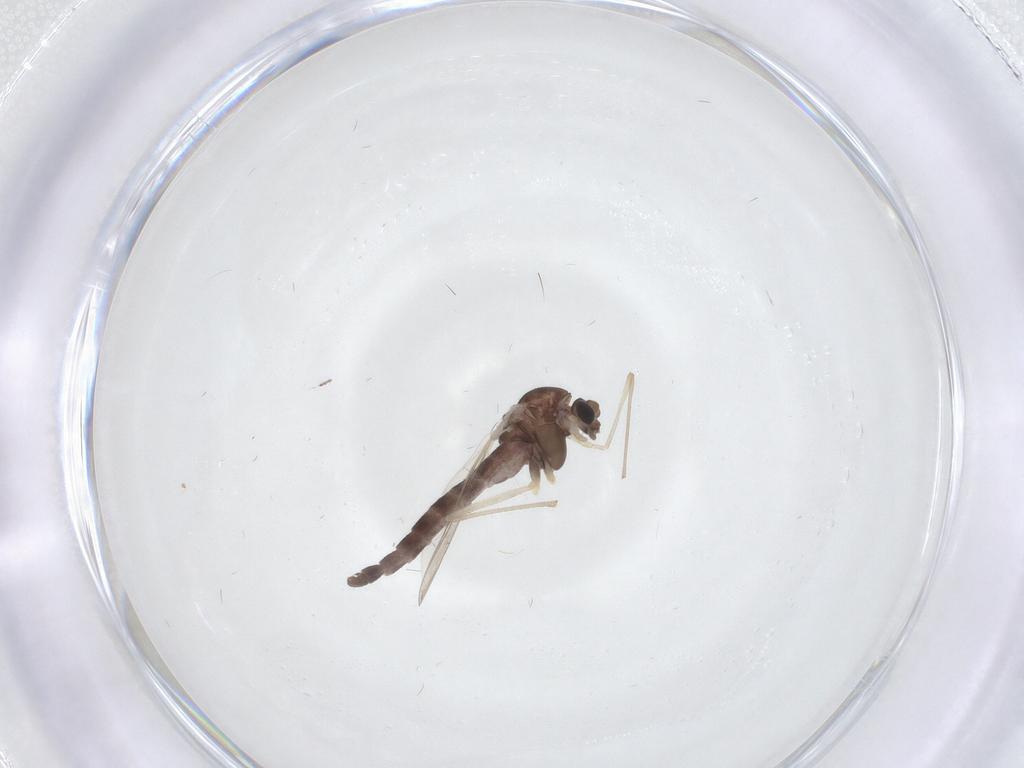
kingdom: Animalia
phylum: Arthropoda
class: Insecta
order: Diptera
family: Chironomidae
